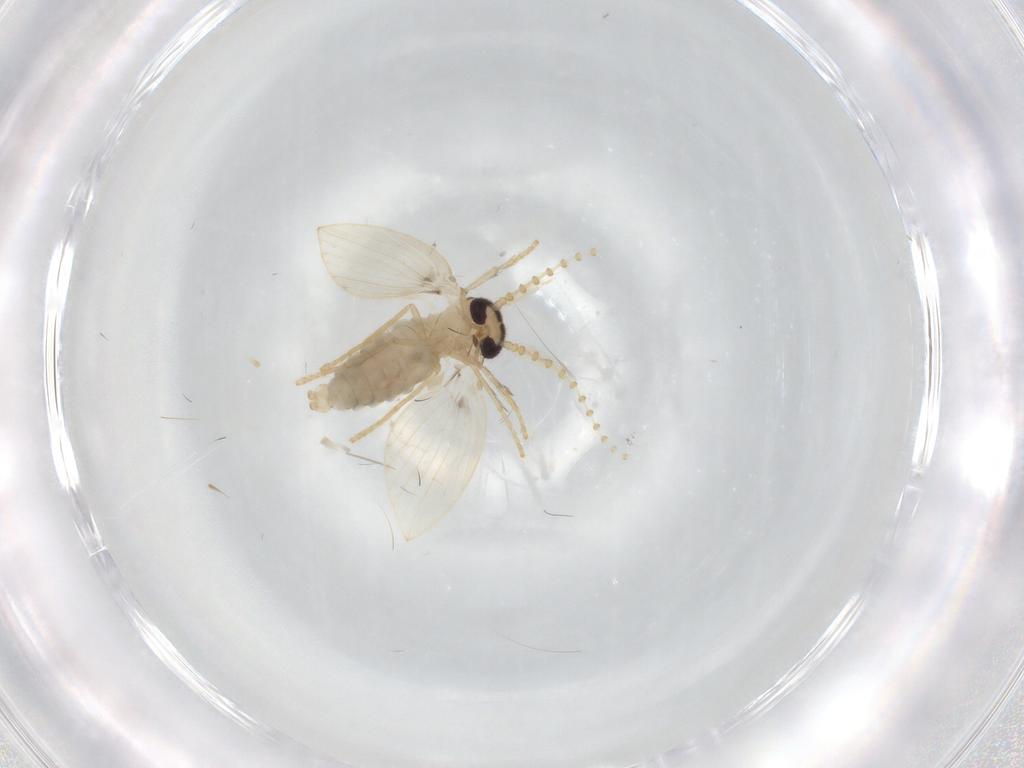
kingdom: Animalia
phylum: Arthropoda
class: Insecta
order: Diptera
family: Psychodidae
